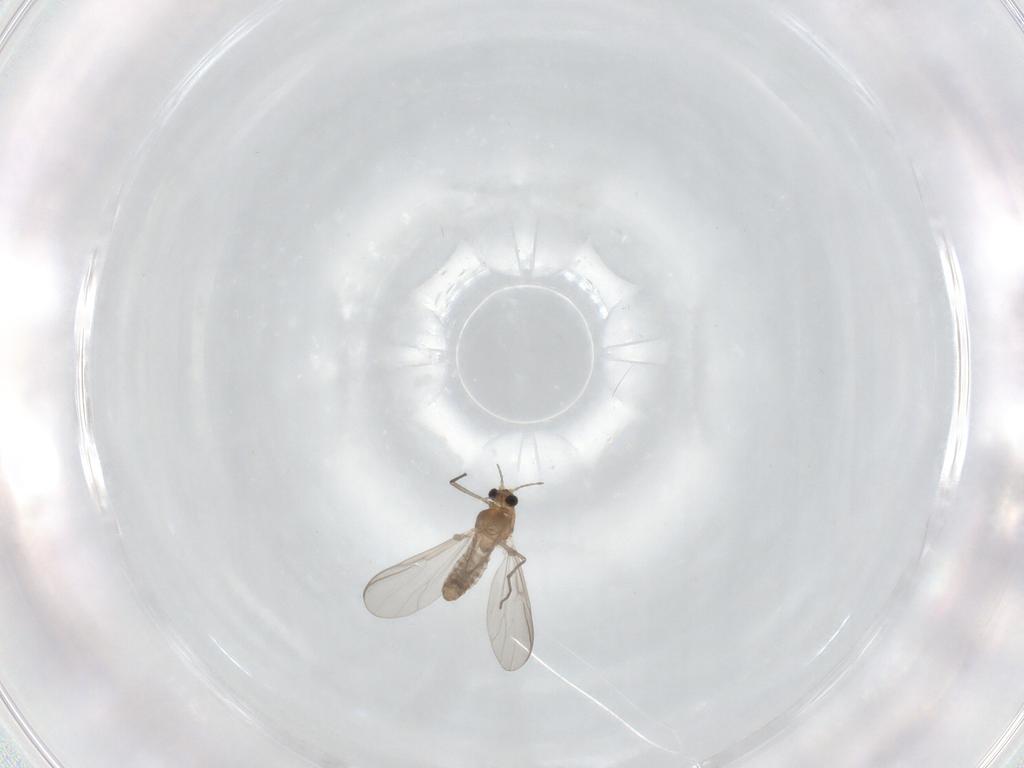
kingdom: Animalia
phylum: Arthropoda
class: Insecta
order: Diptera
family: Chironomidae
